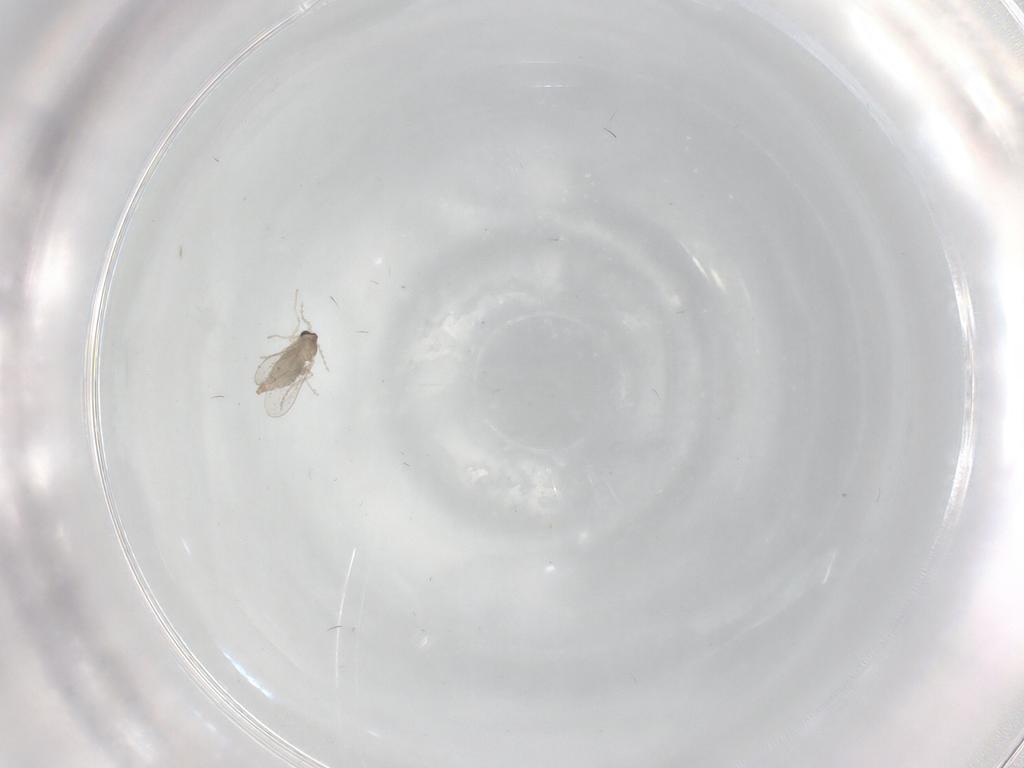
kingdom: Animalia
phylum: Arthropoda
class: Insecta
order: Diptera
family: Cecidomyiidae
